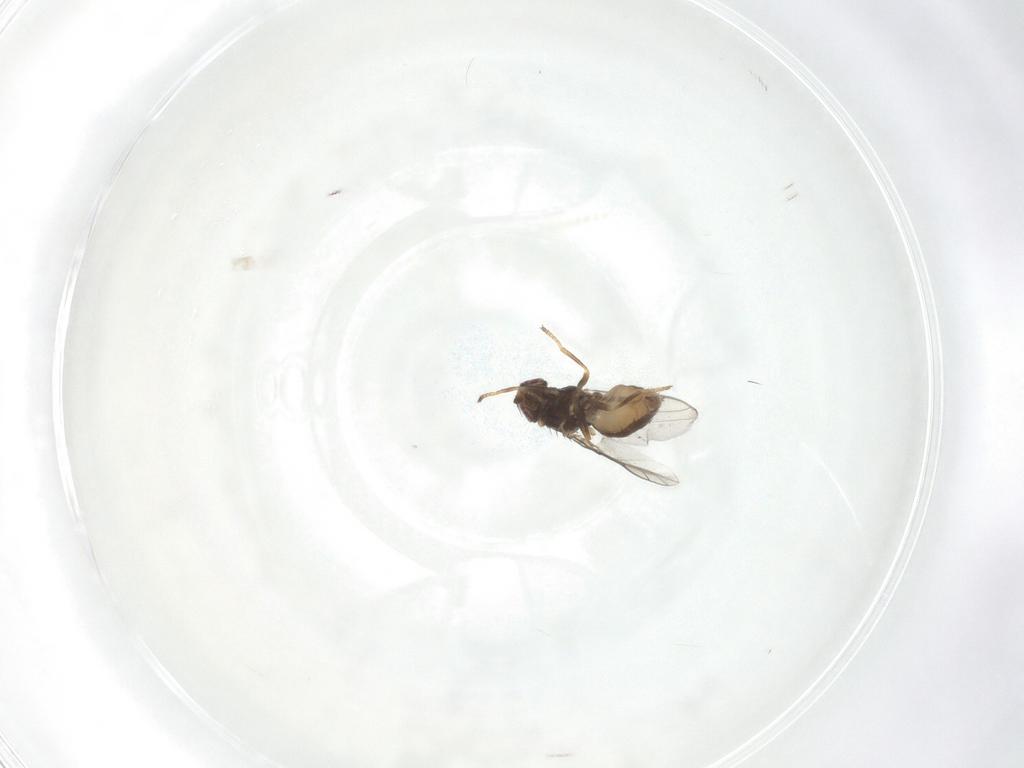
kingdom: Animalia
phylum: Arthropoda
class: Insecta
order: Diptera
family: Chloropidae
